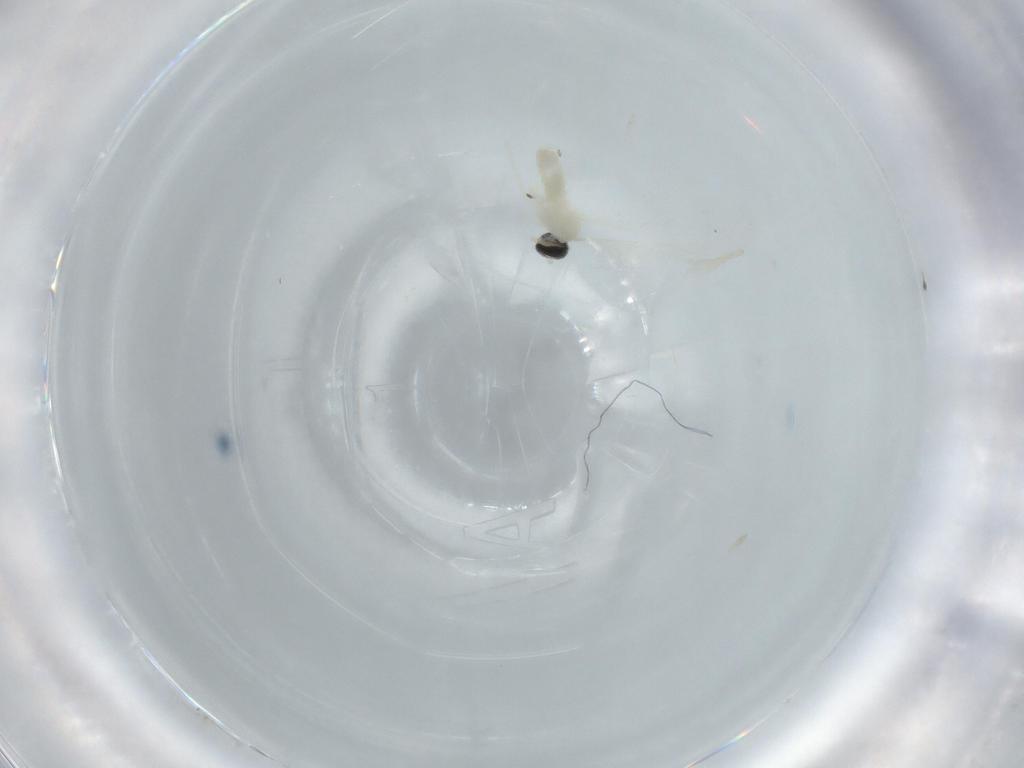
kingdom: Animalia
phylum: Arthropoda
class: Insecta
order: Diptera
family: Cecidomyiidae
